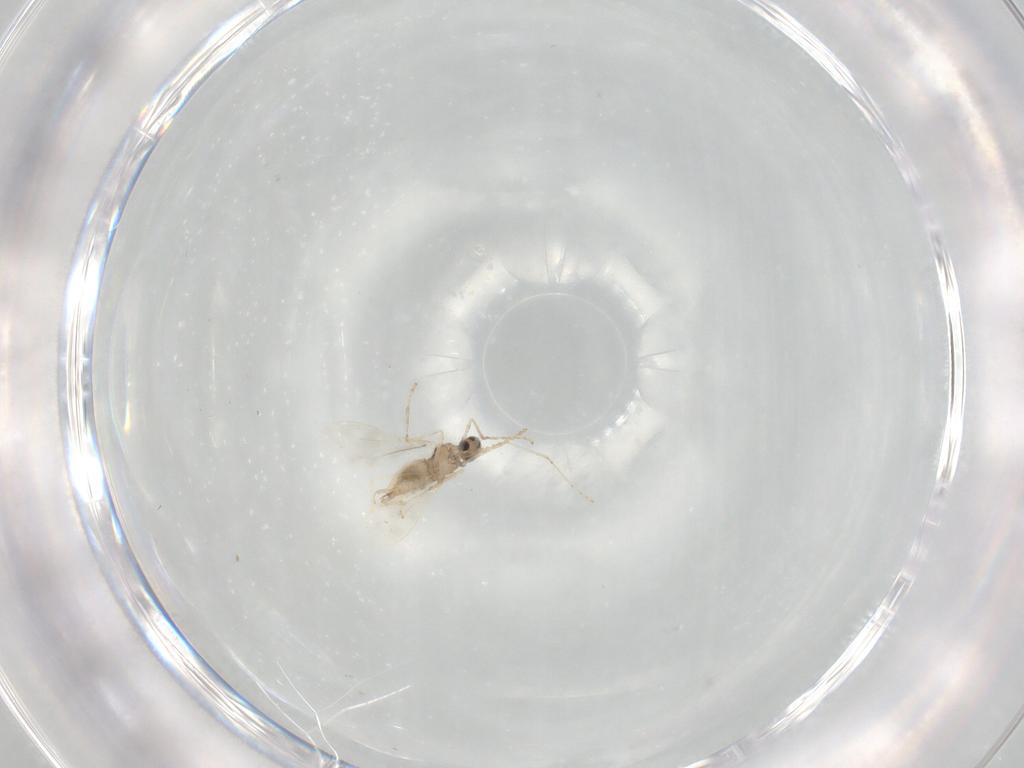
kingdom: Animalia
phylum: Arthropoda
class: Insecta
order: Diptera
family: Cecidomyiidae
